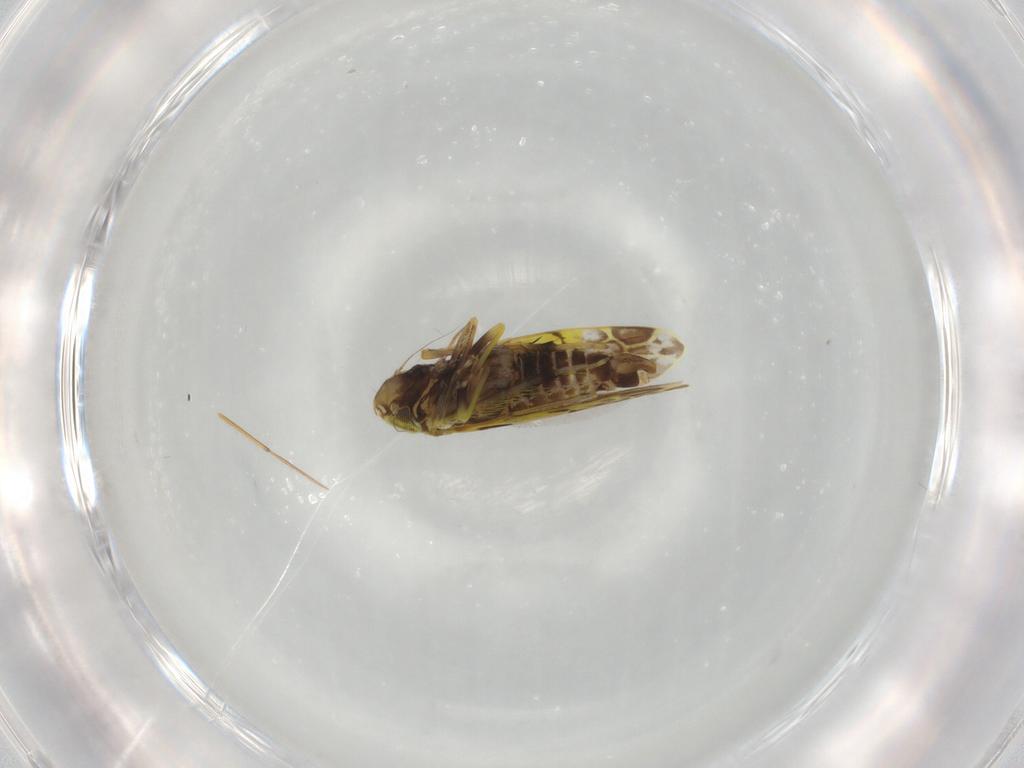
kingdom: Animalia
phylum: Arthropoda
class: Insecta
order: Hemiptera
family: Cicadellidae
